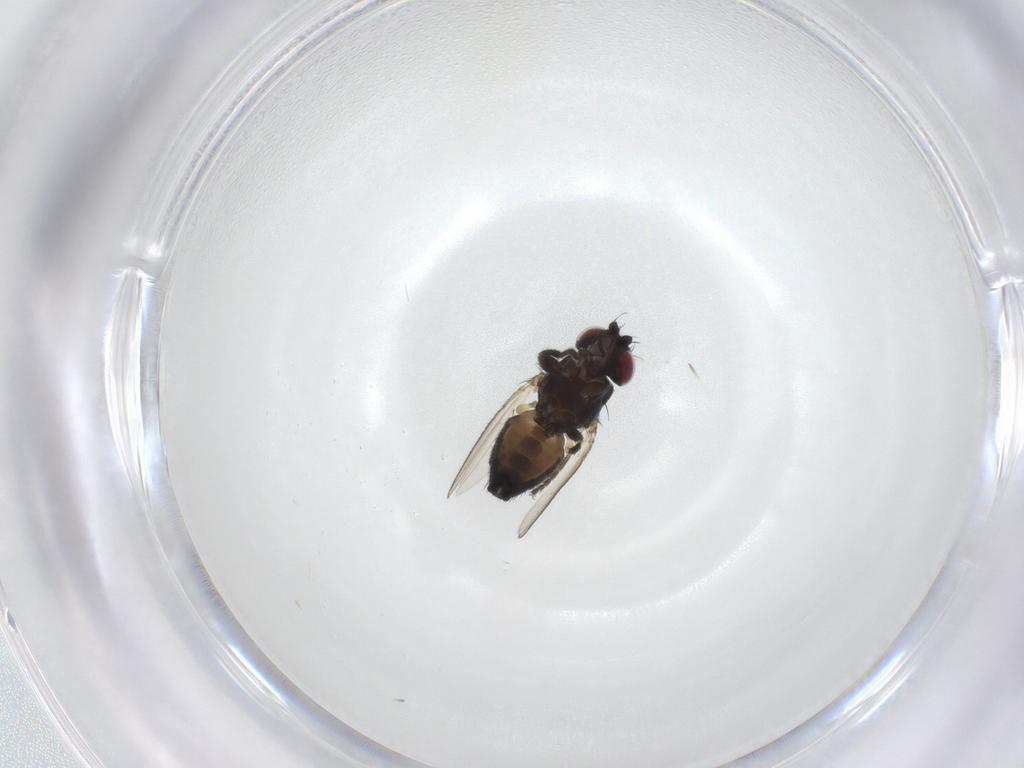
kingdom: Animalia
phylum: Arthropoda
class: Insecta
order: Diptera
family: Milichiidae
